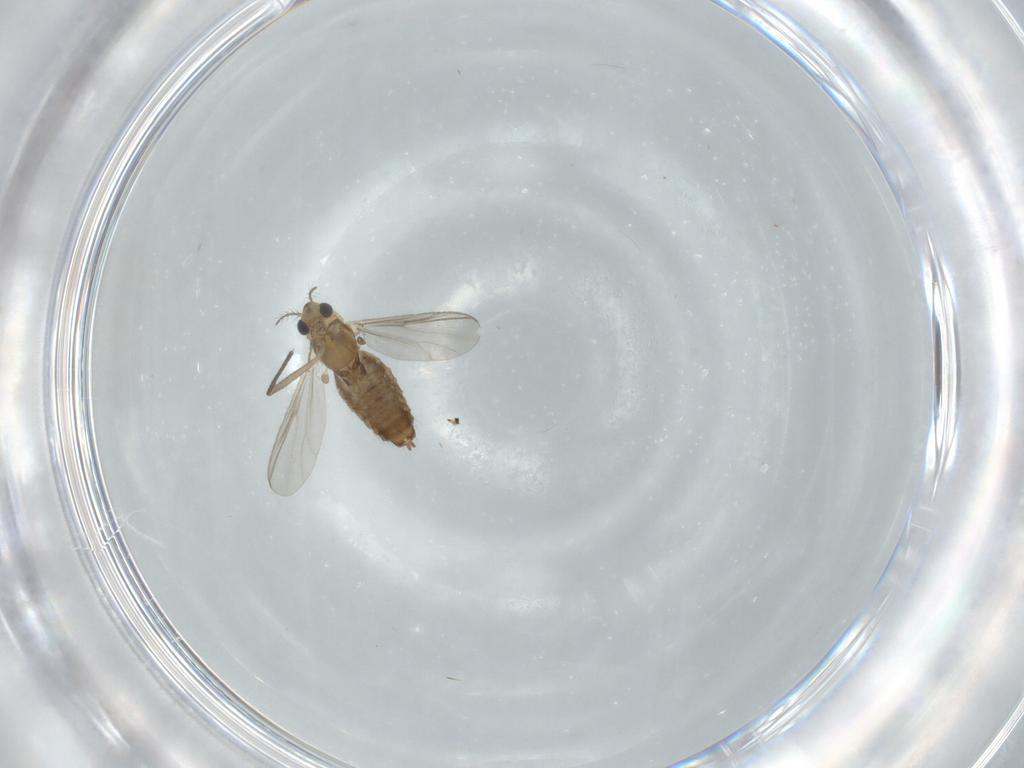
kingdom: Animalia
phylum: Arthropoda
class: Insecta
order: Diptera
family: Chironomidae
